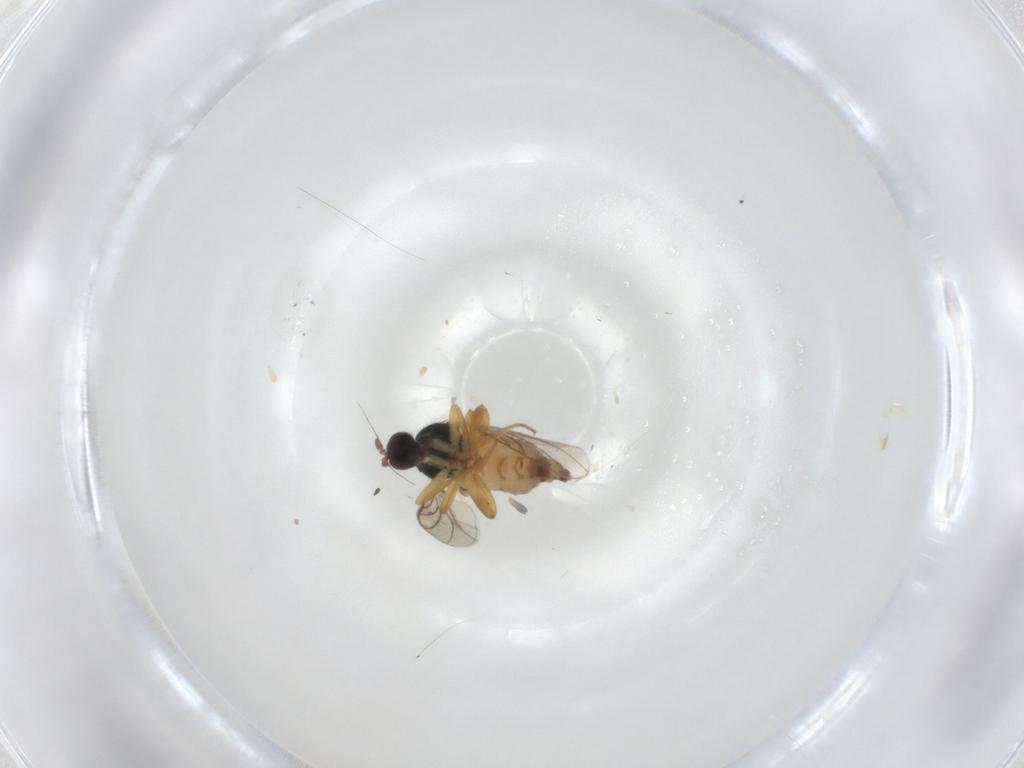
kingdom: Animalia
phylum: Arthropoda
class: Insecta
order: Diptera
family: Hybotidae
